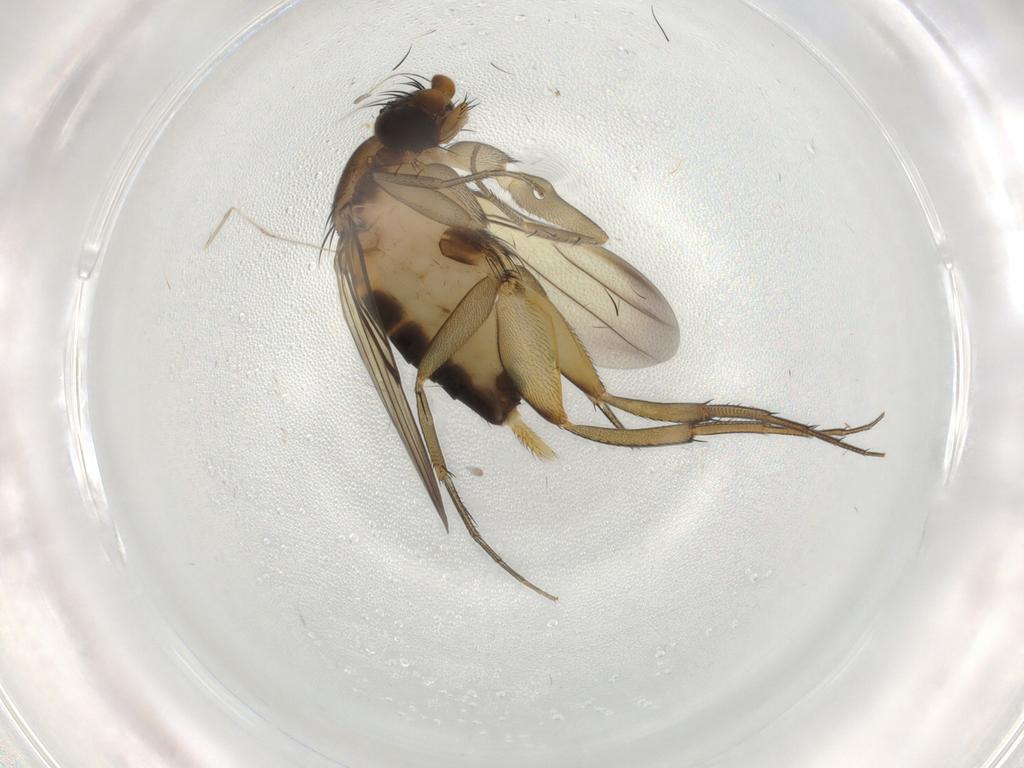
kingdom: Animalia
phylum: Arthropoda
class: Insecta
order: Diptera
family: Phoridae
